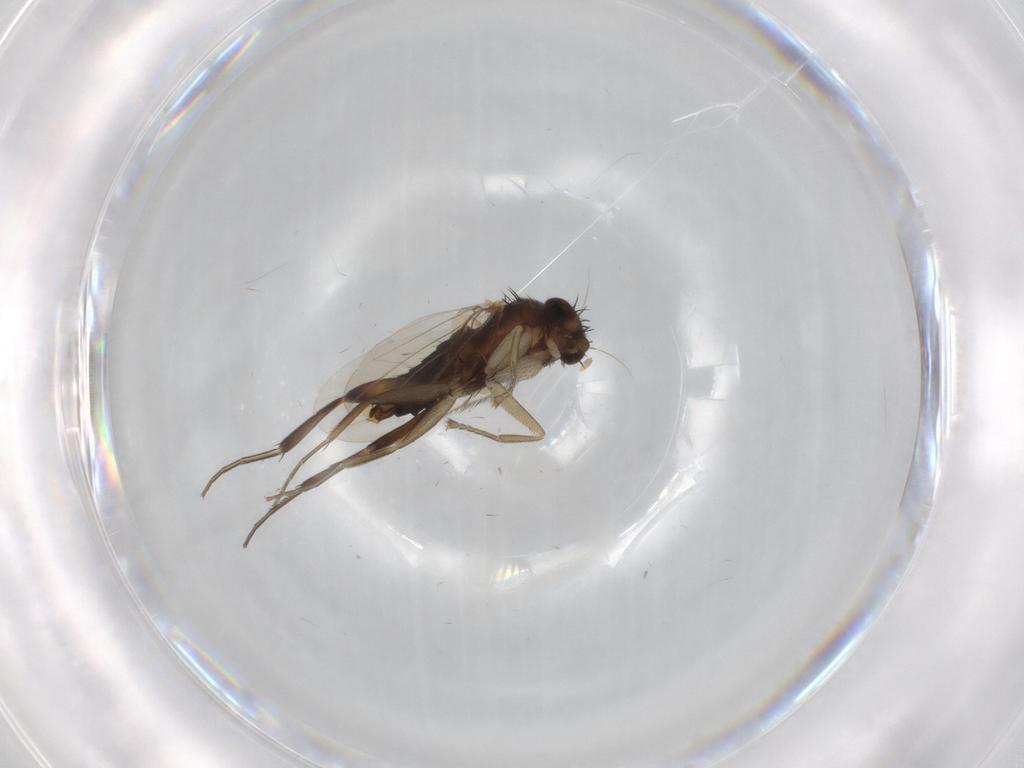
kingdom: Animalia
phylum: Arthropoda
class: Insecta
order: Diptera
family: Phoridae
